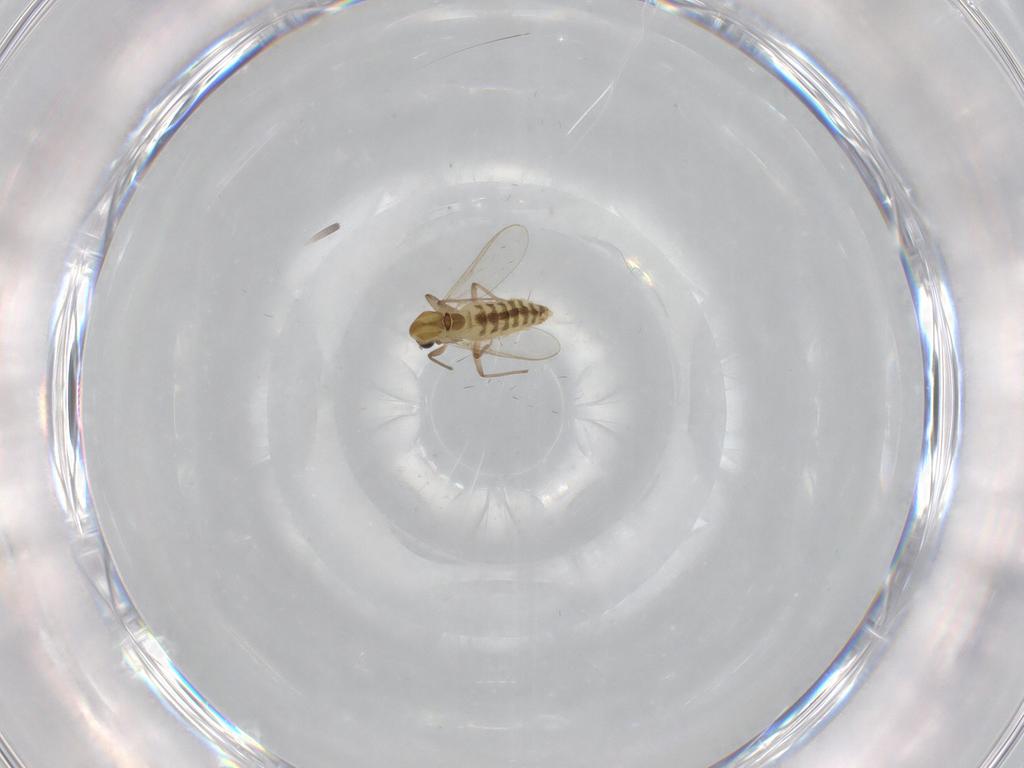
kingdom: Animalia
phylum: Arthropoda
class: Insecta
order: Diptera
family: Chironomidae
